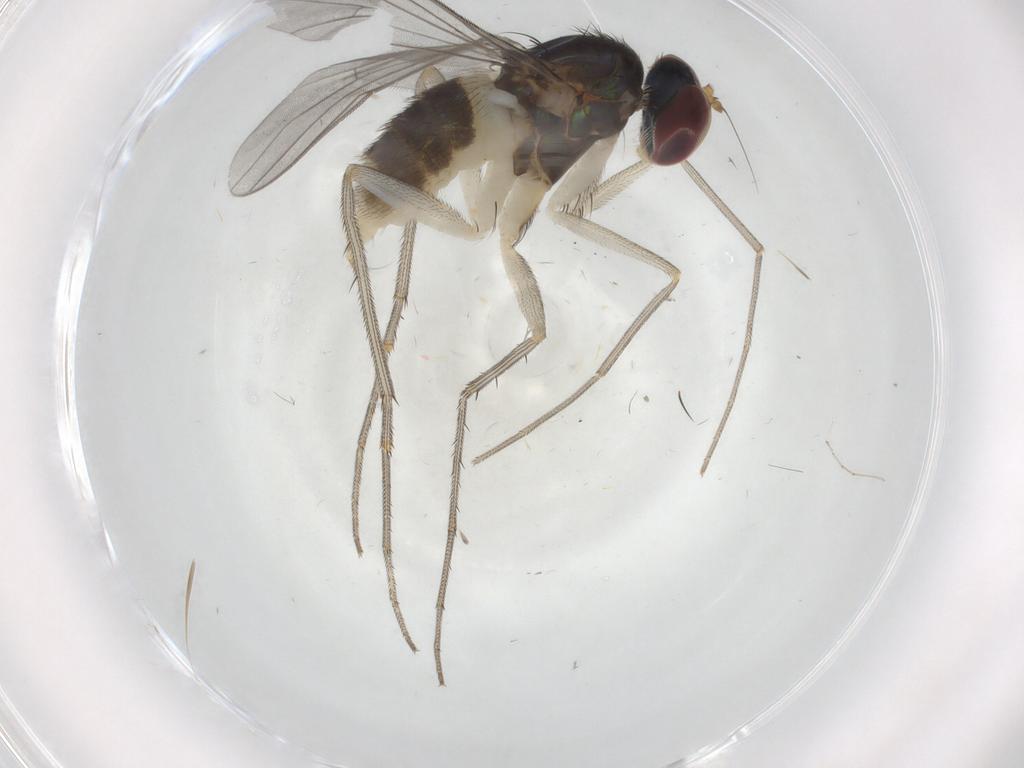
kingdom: Animalia
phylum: Arthropoda
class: Insecta
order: Diptera
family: Dolichopodidae
